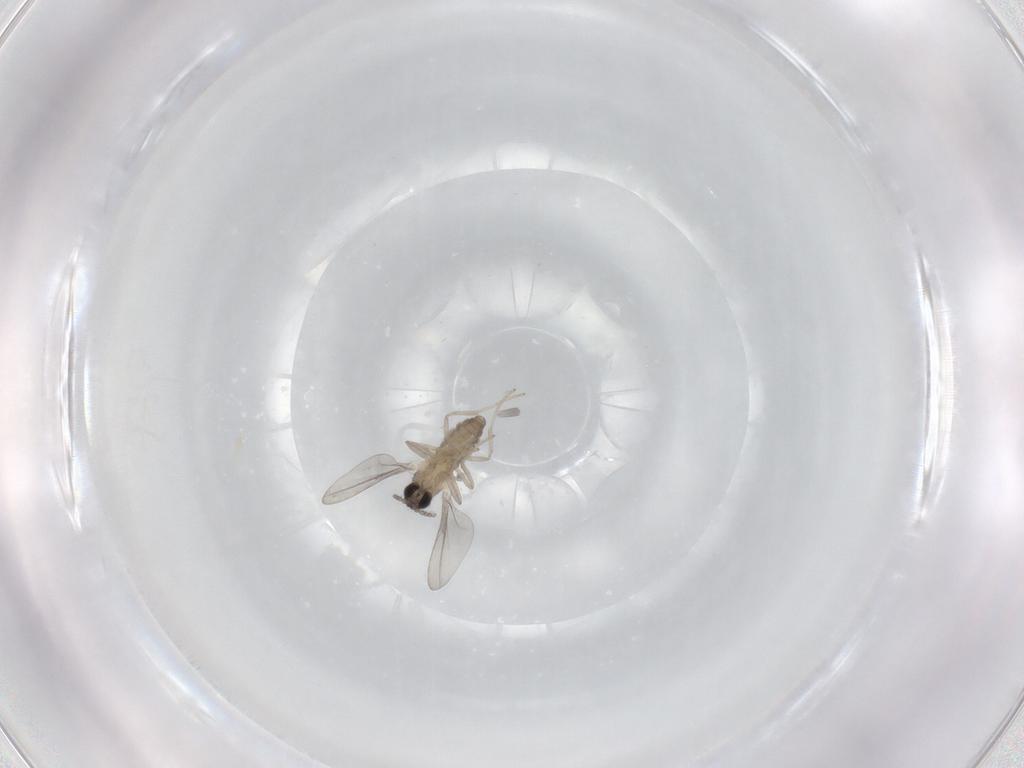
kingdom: Animalia
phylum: Arthropoda
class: Insecta
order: Diptera
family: Cecidomyiidae
